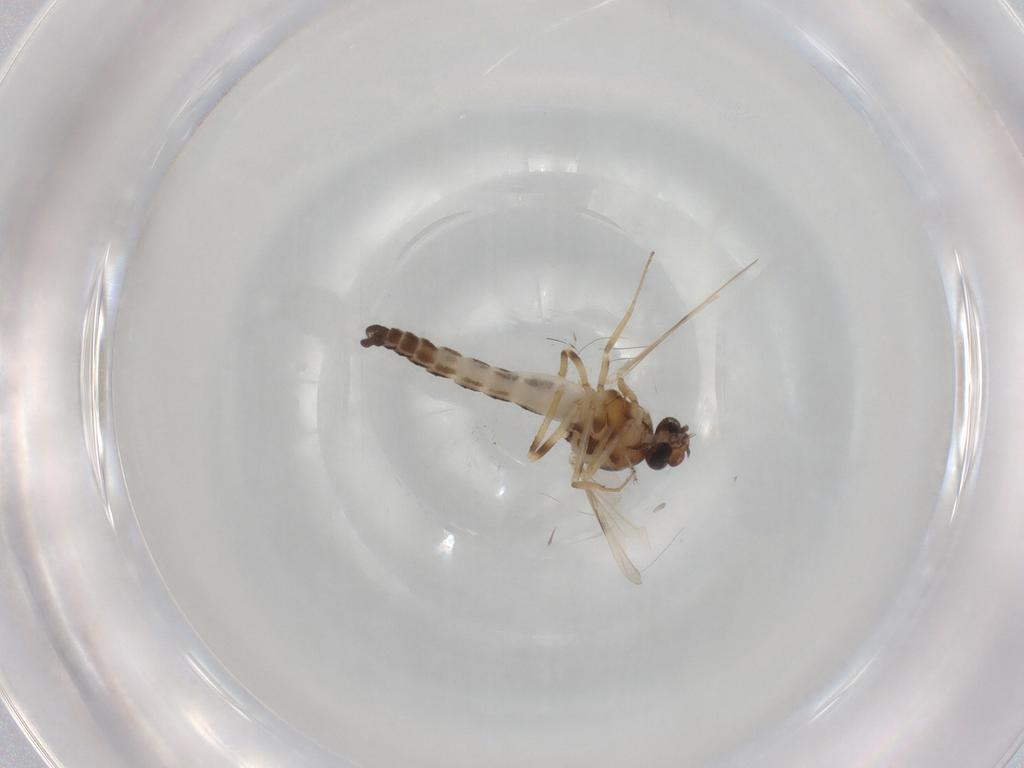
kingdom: Animalia
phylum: Arthropoda
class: Insecta
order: Diptera
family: Ceratopogonidae
